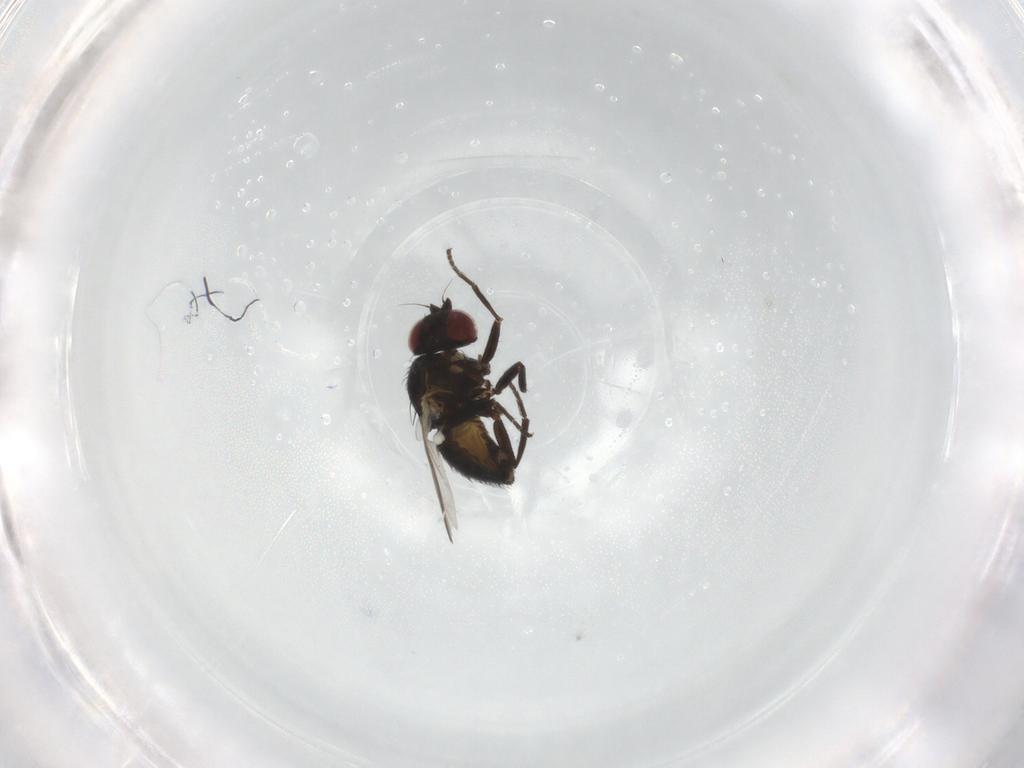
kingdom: Animalia
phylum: Arthropoda
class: Insecta
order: Diptera
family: Agromyzidae
